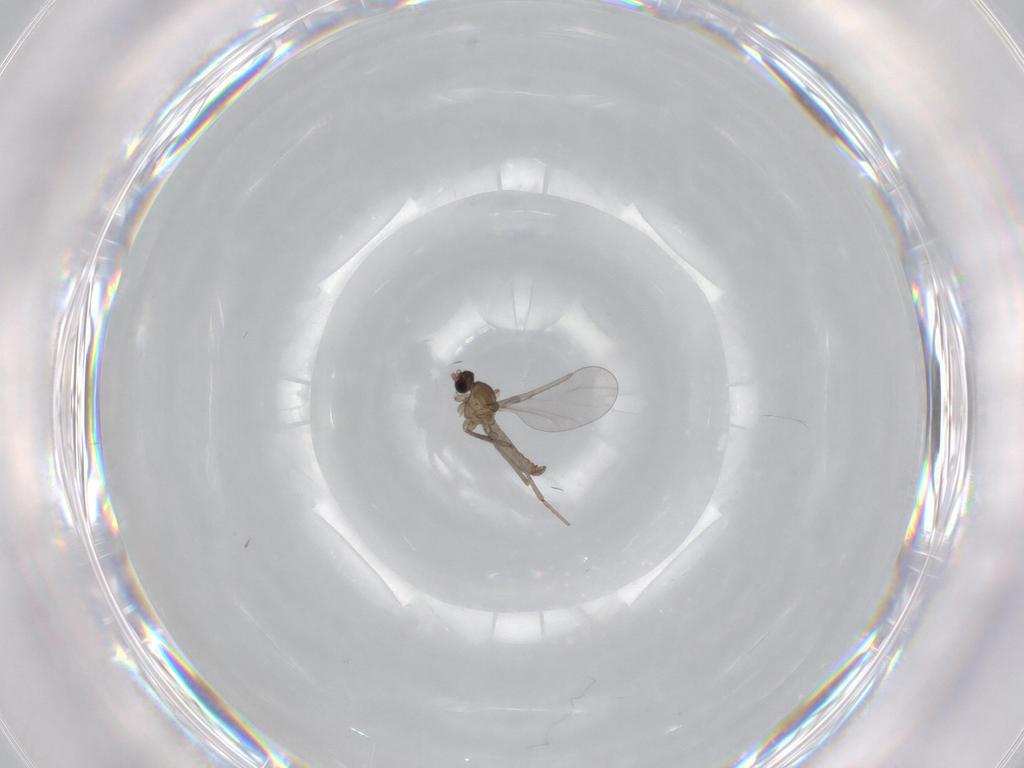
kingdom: Animalia
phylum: Arthropoda
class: Insecta
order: Diptera
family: Cecidomyiidae
